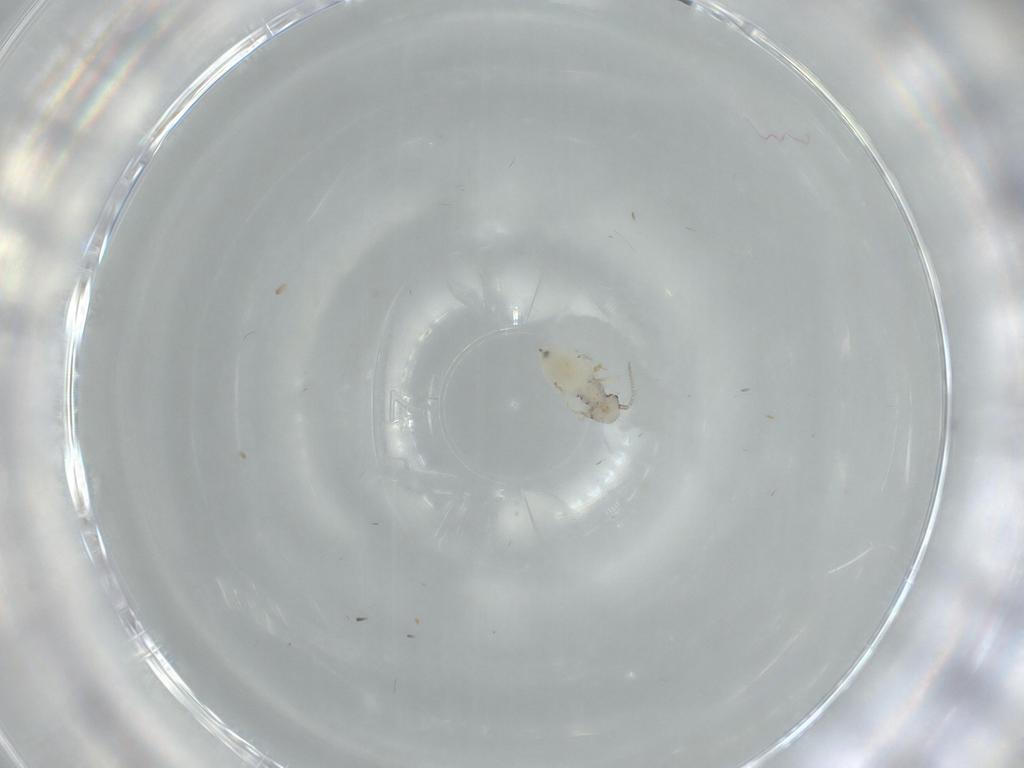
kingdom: Animalia
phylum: Arthropoda
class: Insecta
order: Psocodea
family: Pseudocaeciliidae
